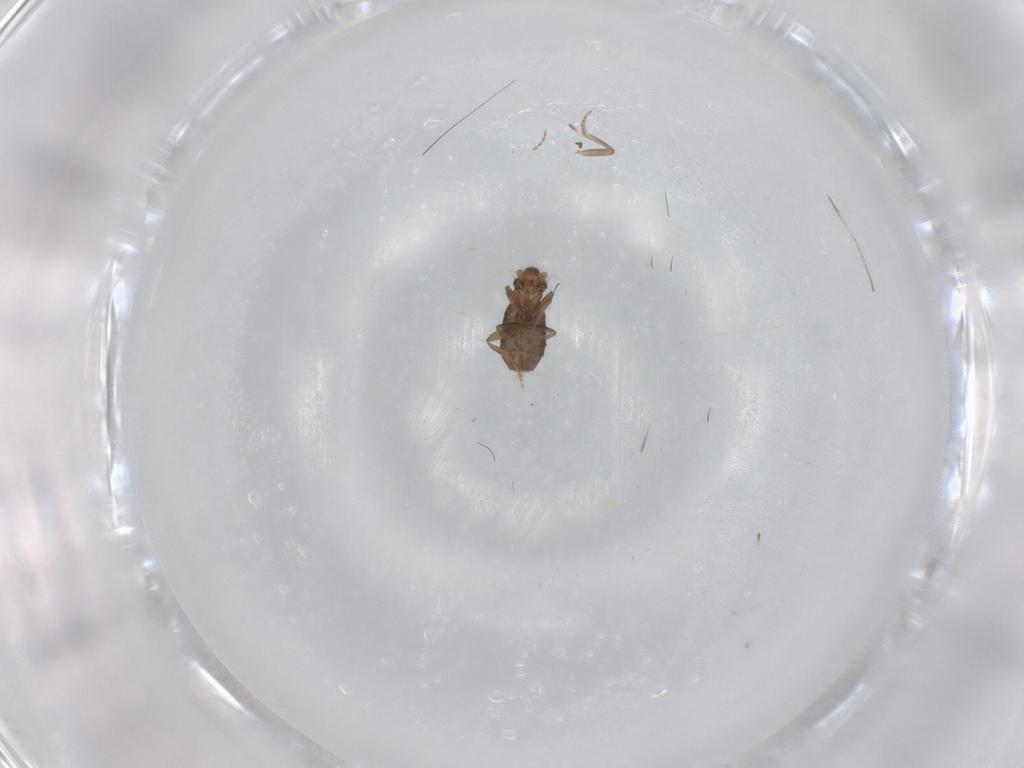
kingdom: Animalia
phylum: Arthropoda
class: Insecta
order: Diptera
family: Phoridae
